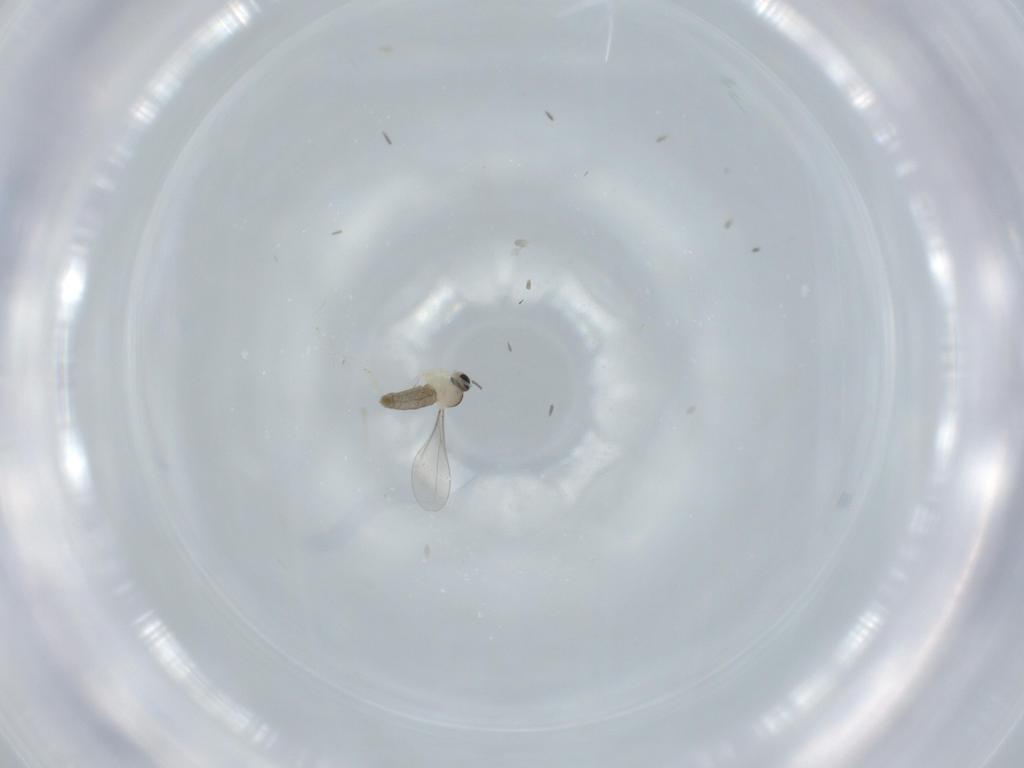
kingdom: Animalia
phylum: Arthropoda
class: Insecta
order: Diptera
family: Cecidomyiidae
